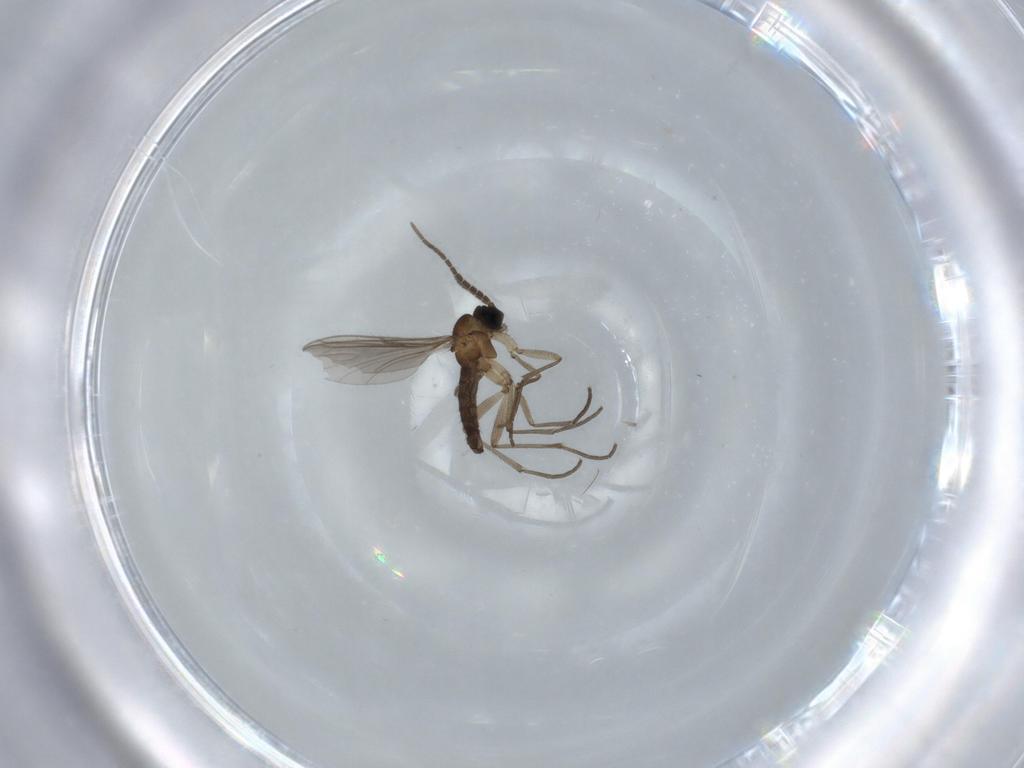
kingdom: Animalia
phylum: Arthropoda
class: Insecta
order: Diptera
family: Sciaridae
